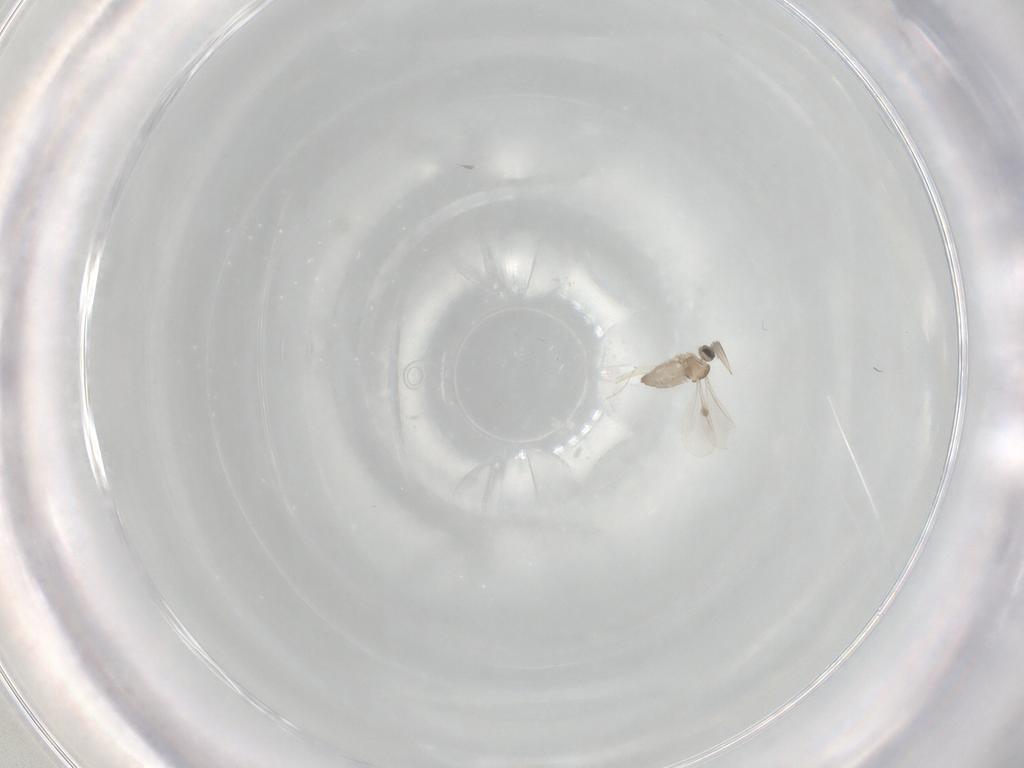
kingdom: Animalia
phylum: Arthropoda
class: Insecta
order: Diptera
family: Cecidomyiidae
